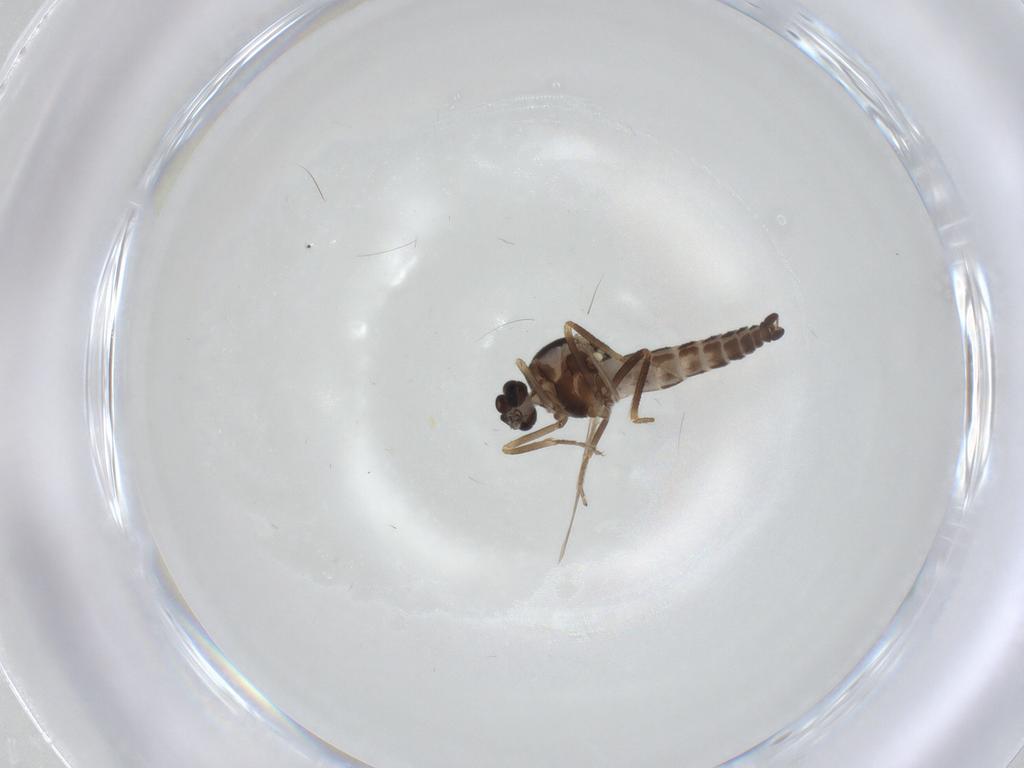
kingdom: Animalia
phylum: Arthropoda
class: Insecta
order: Diptera
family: Ceratopogonidae
